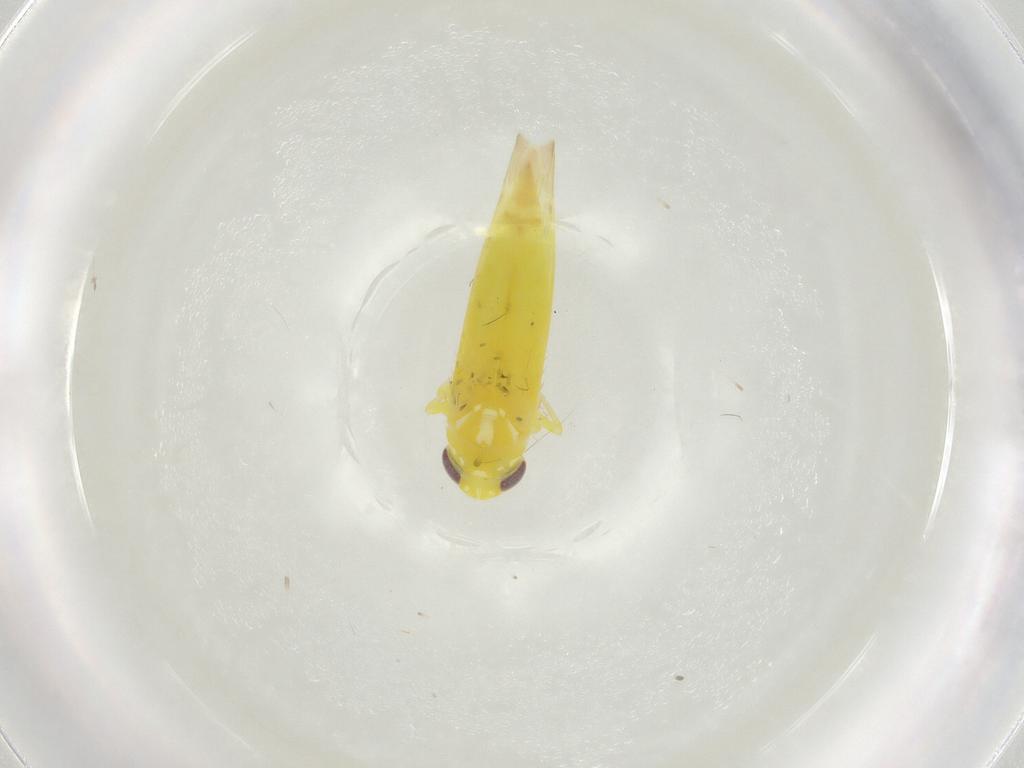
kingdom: Animalia
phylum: Arthropoda
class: Insecta
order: Hemiptera
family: Cicadellidae
